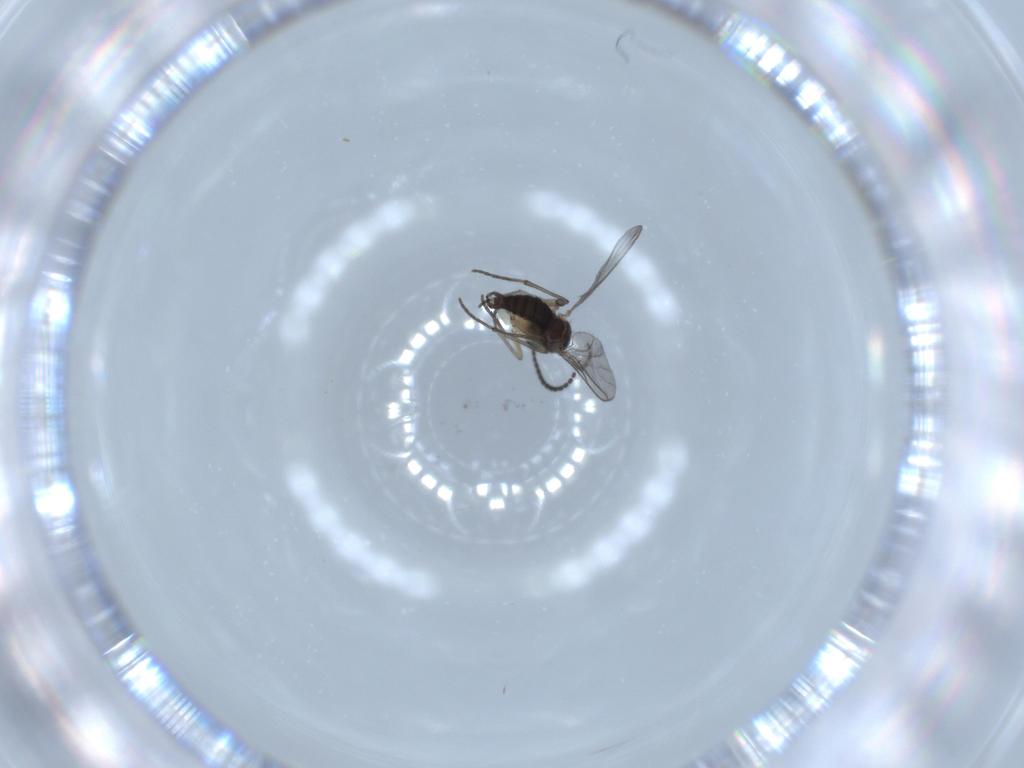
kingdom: Animalia
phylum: Arthropoda
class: Insecta
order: Diptera
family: Sciaridae
